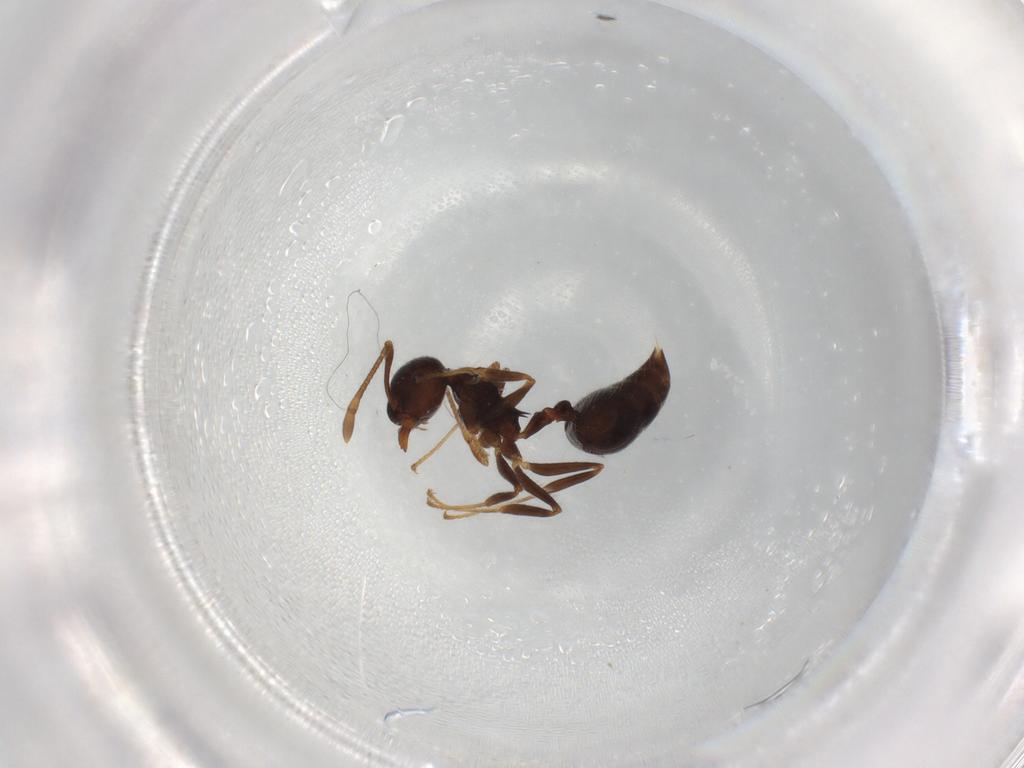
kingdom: Animalia
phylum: Arthropoda
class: Insecta
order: Hymenoptera
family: Formicidae
